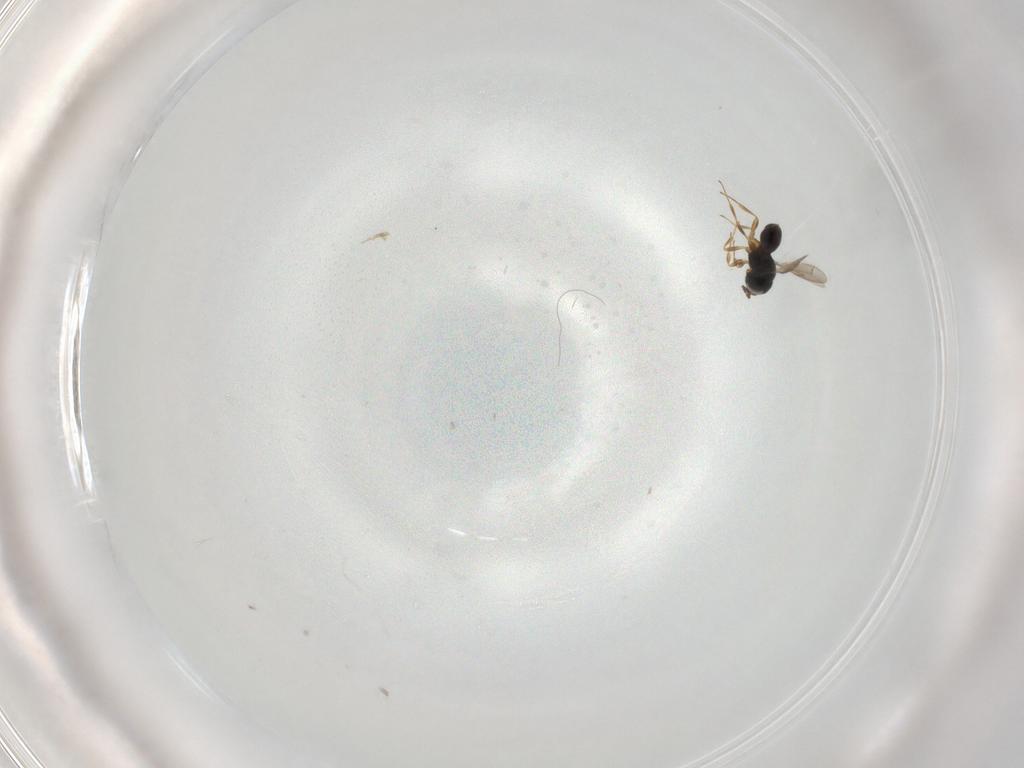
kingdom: Animalia
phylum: Arthropoda
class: Insecta
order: Hymenoptera
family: Scelionidae
